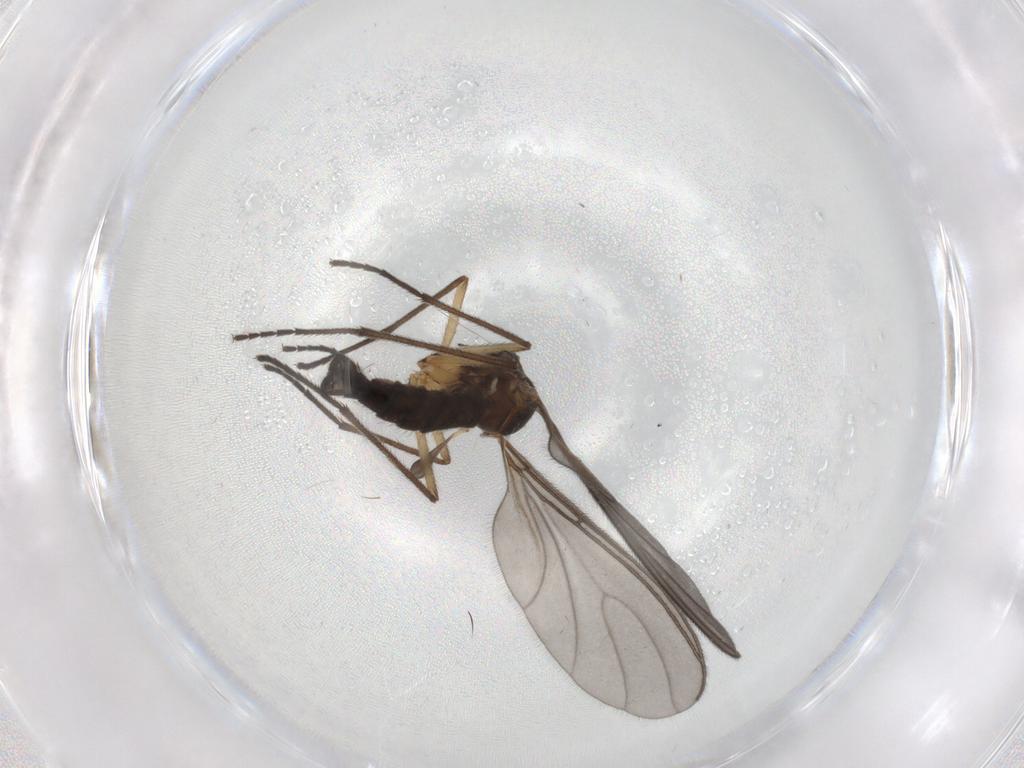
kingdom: Animalia
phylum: Arthropoda
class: Insecta
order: Diptera
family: Sciaridae
